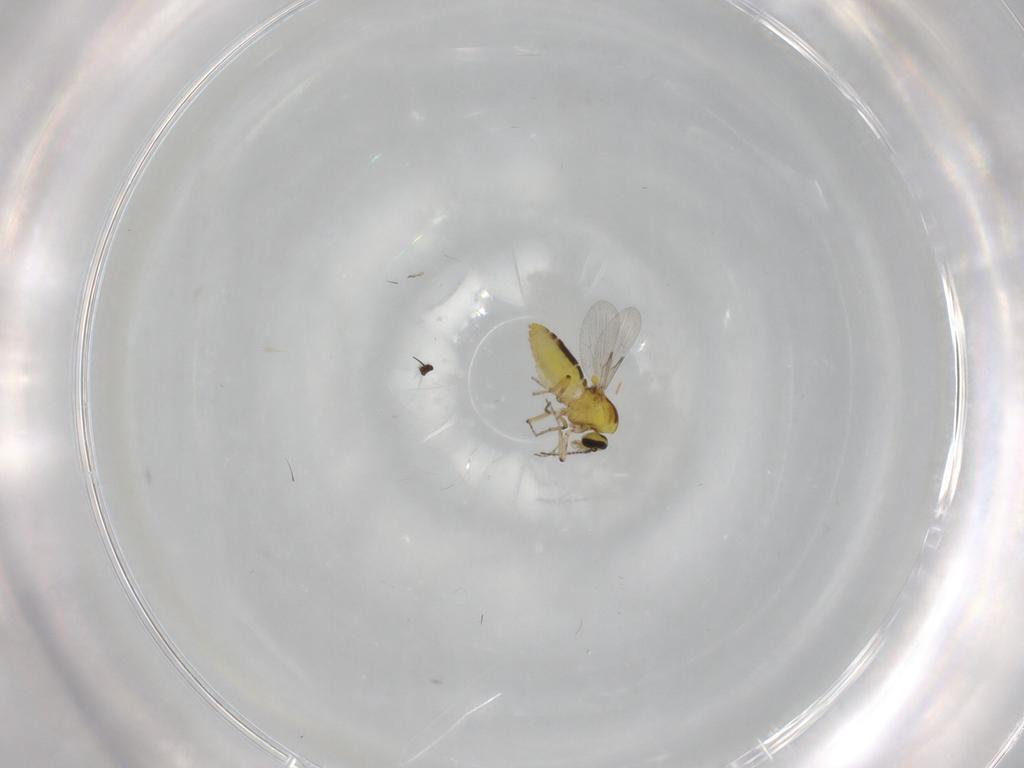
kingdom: Animalia
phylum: Arthropoda
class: Insecta
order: Diptera
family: Ceratopogonidae
